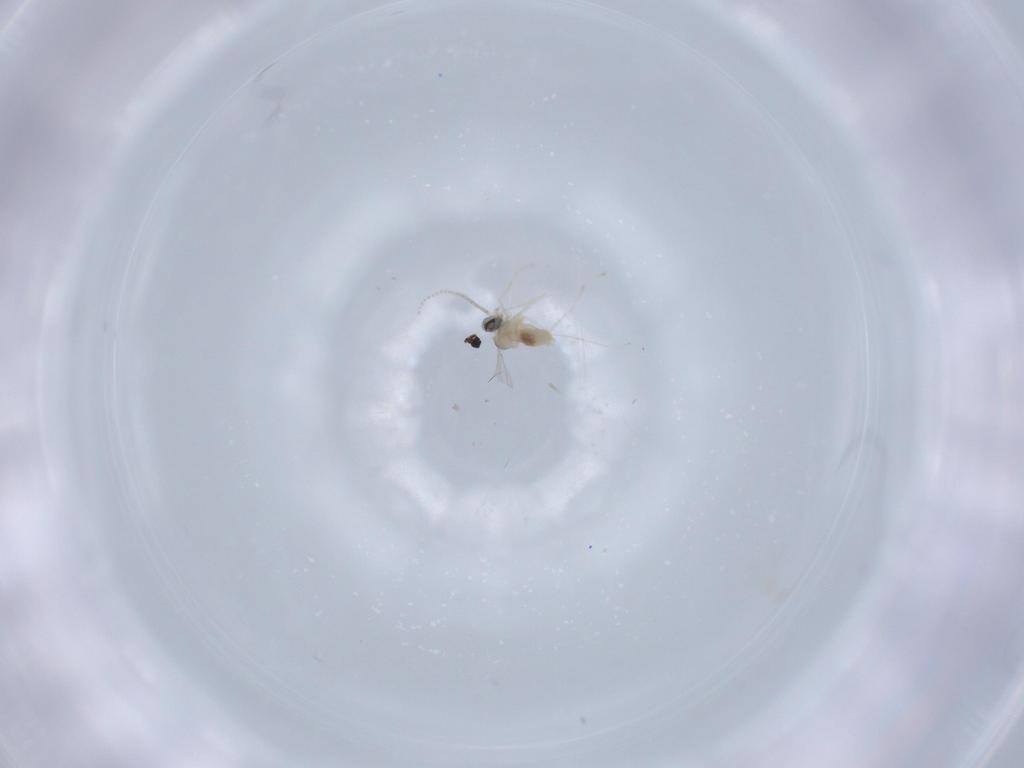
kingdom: Animalia
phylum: Arthropoda
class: Insecta
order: Diptera
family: Cecidomyiidae
